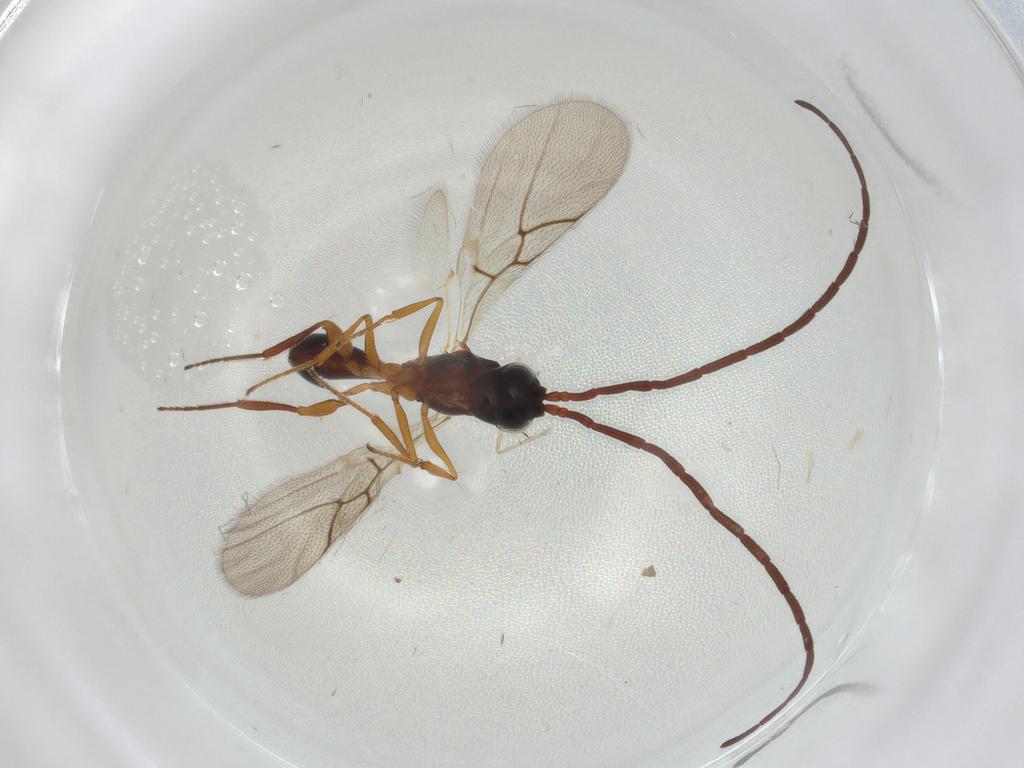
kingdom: Animalia
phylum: Arthropoda
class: Insecta
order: Hymenoptera
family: Figitidae
